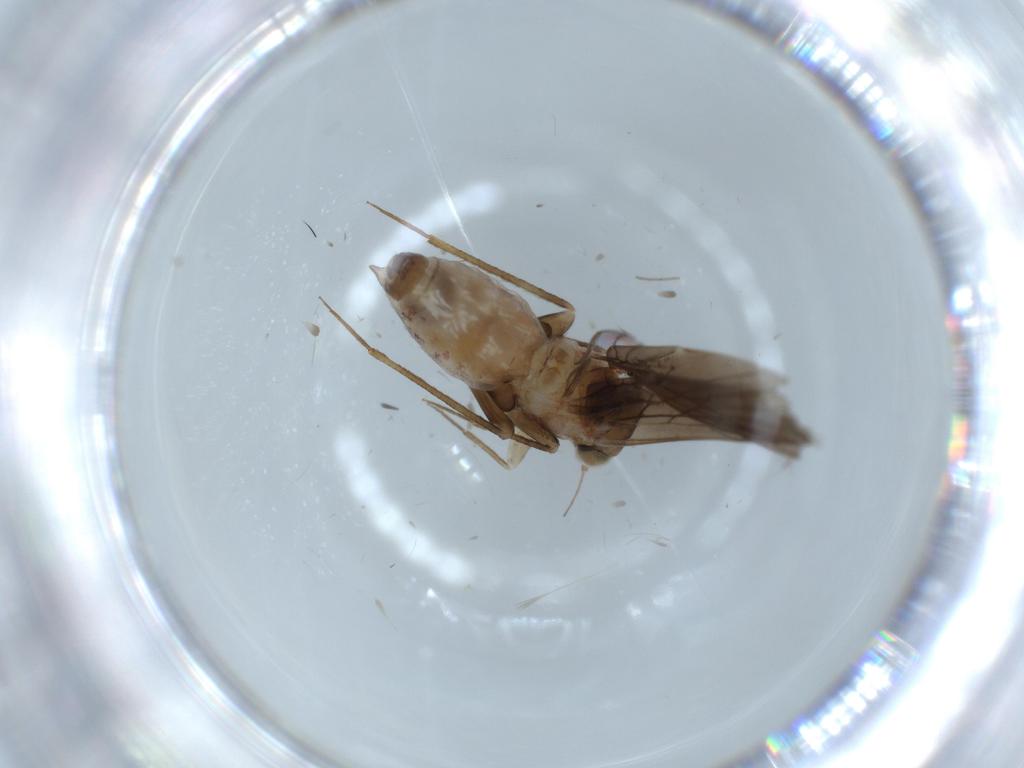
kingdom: Animalia
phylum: Arthropoda
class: Insecta
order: Psocodea
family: Lepidopsocidae
